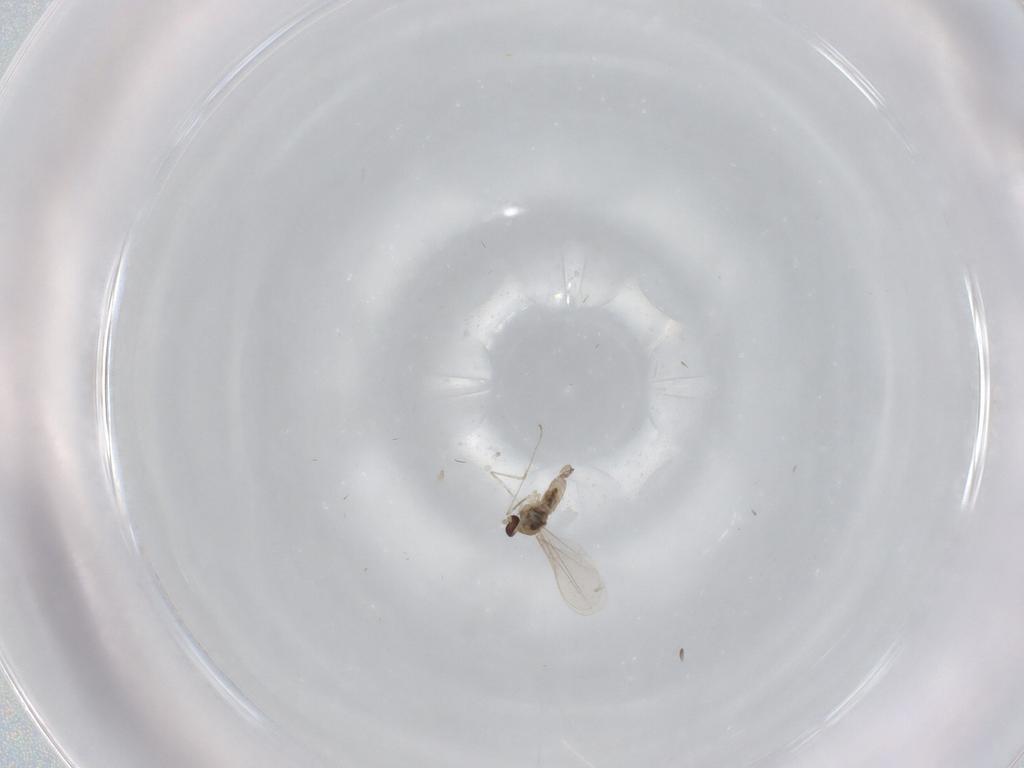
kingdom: Animalia
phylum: Arthropoda
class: Insecta
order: Diptera
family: Cecidomyiidae
